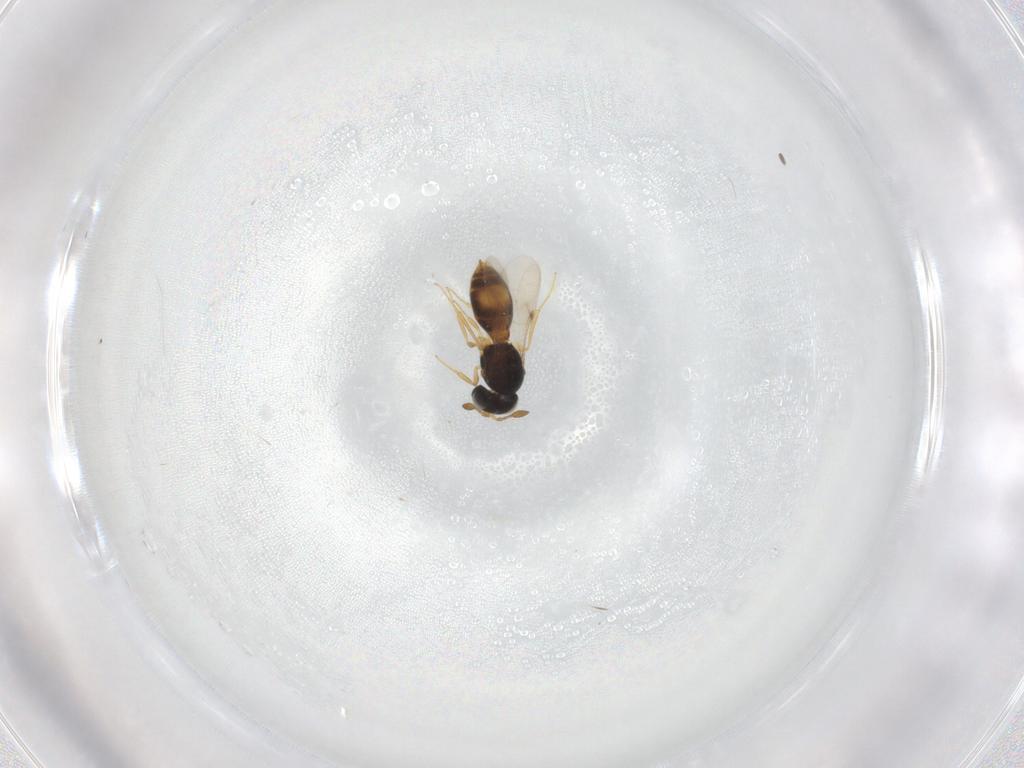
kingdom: Animalia
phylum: Arthropoda
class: Insecta
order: Hymenoptera
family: Scelionidae
